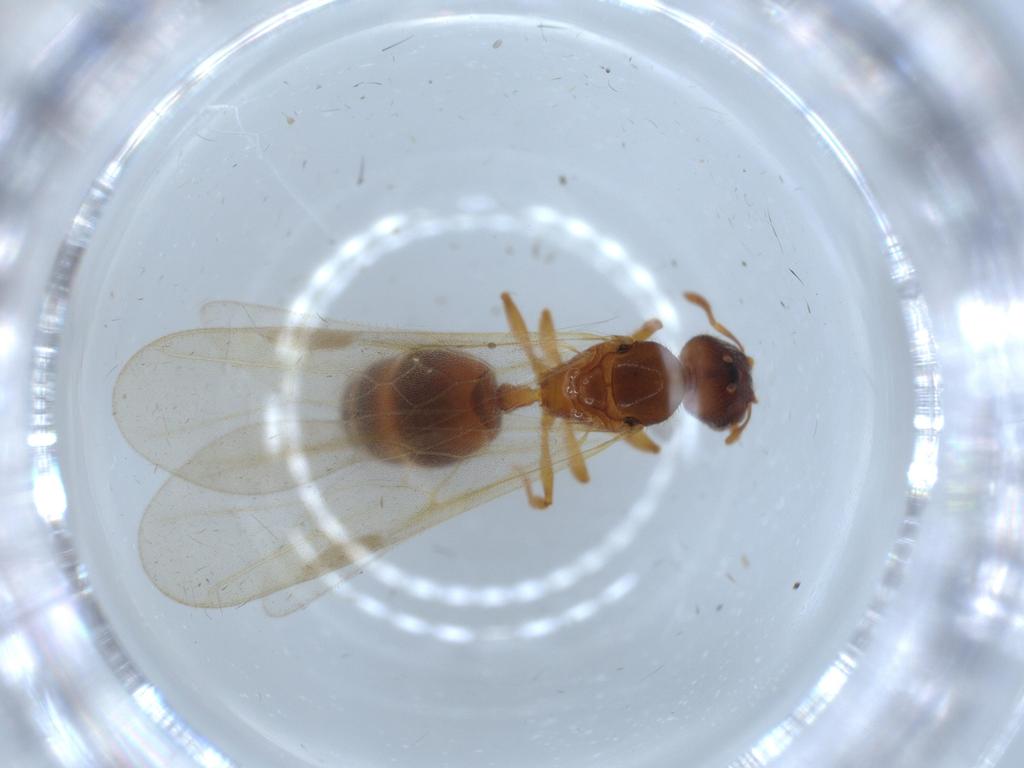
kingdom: Animalia
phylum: Arthropoda
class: Insecta
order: Hymenoptera
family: Formicidae
